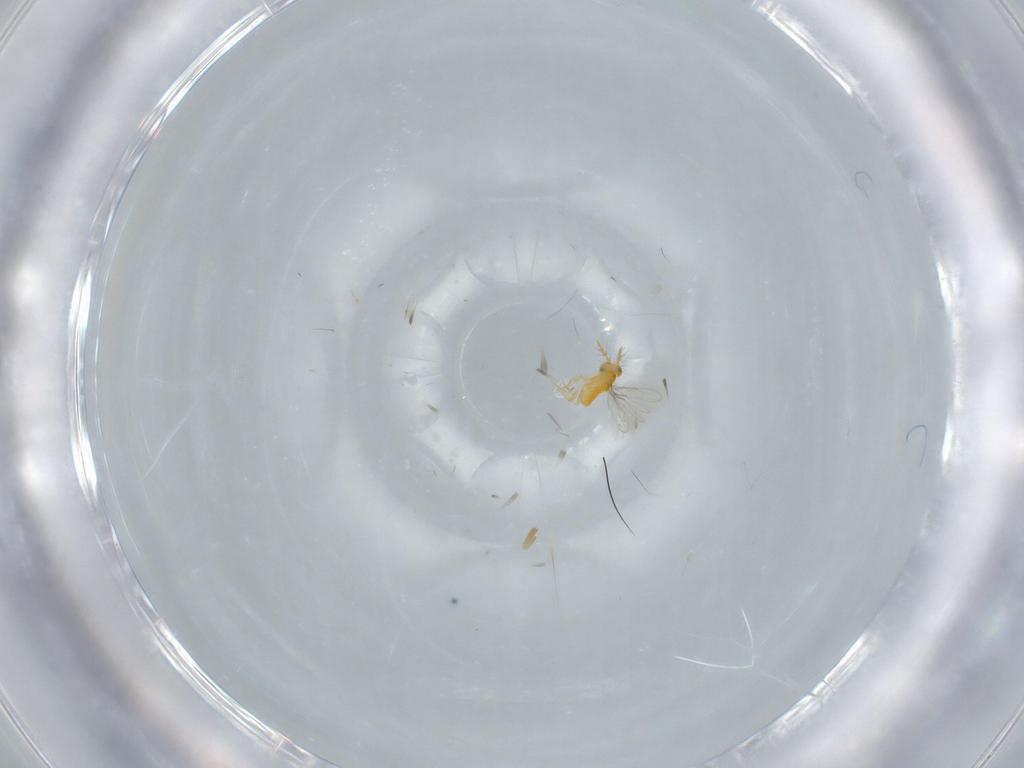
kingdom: Animalia
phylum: Arthropoda
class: Insecta
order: Hymenoptera
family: Aphelinidae
